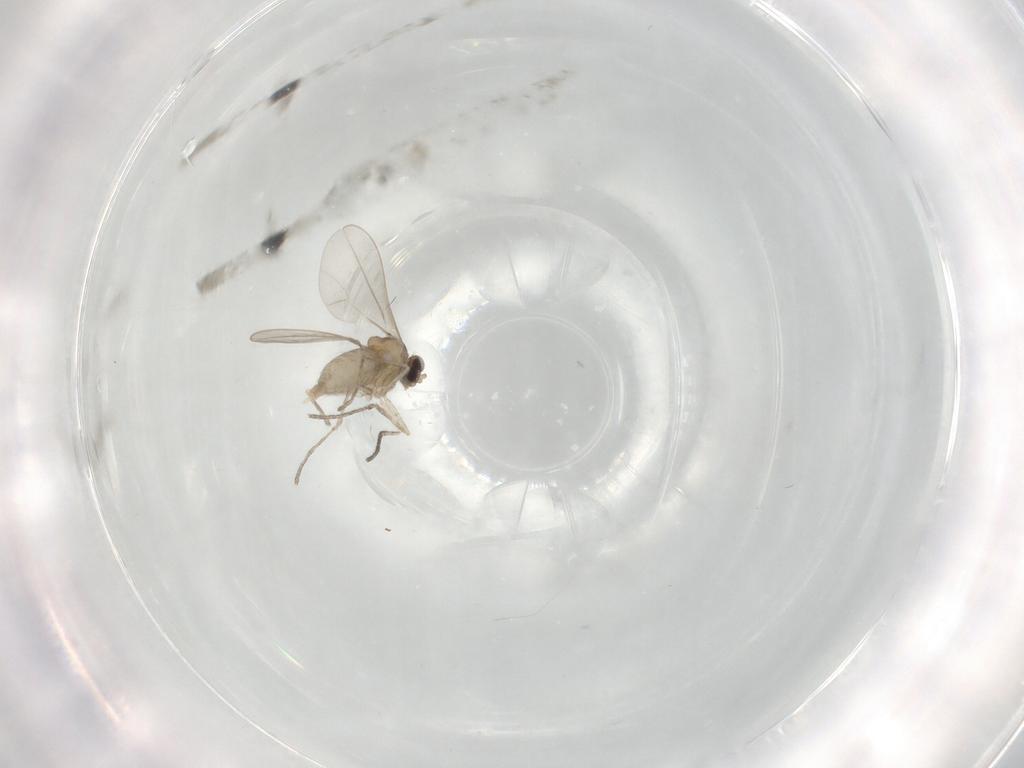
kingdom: Animalia
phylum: Arthropoda
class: Insecta
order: Diptera
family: Cecidomyiidae
